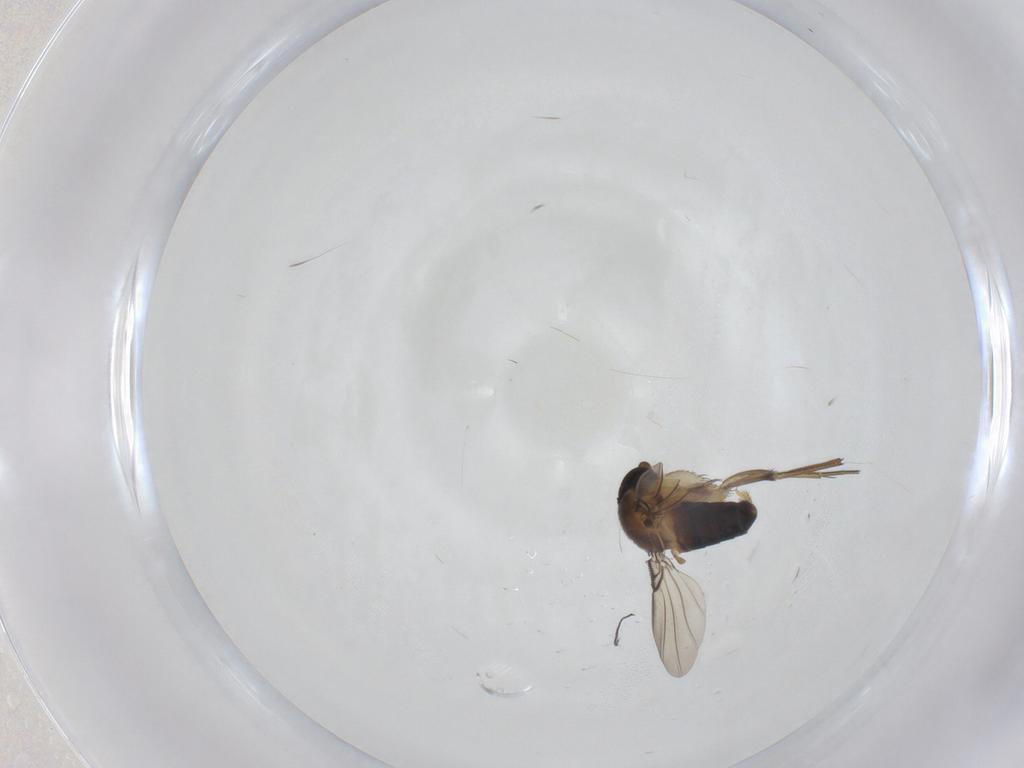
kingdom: Animalia
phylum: Arthropoda
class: Insecta
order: Diptera
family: Phoridae
